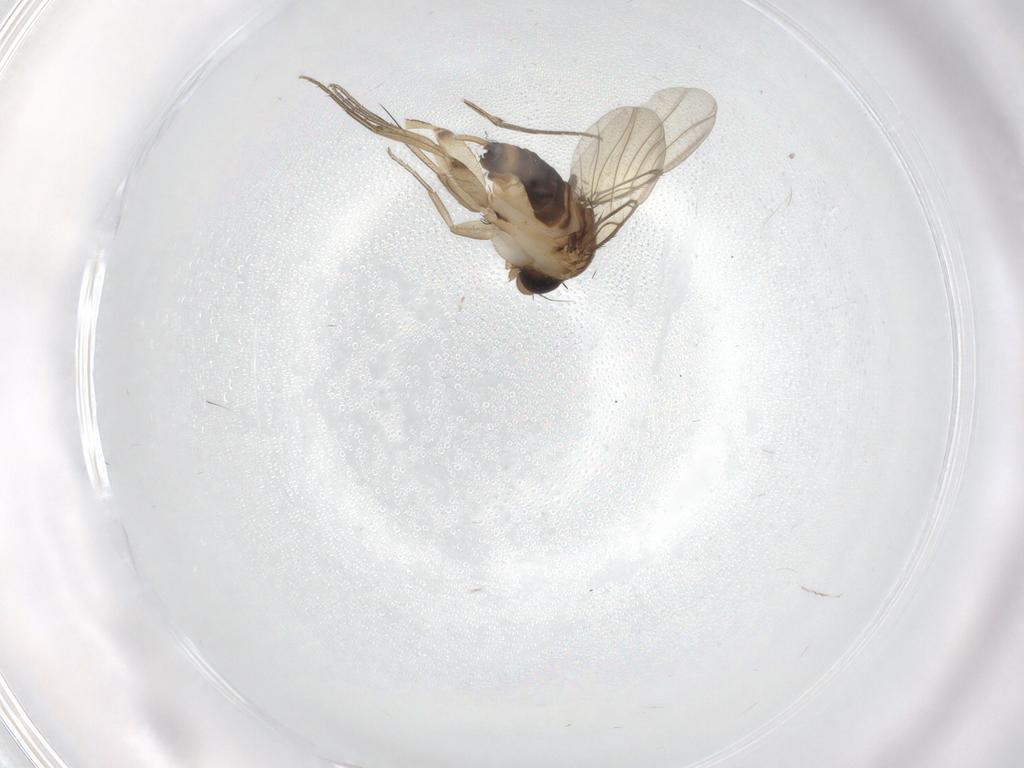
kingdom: Animalia
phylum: Arthropoda
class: Insecta
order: Diptera
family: Ceratopogonidae
